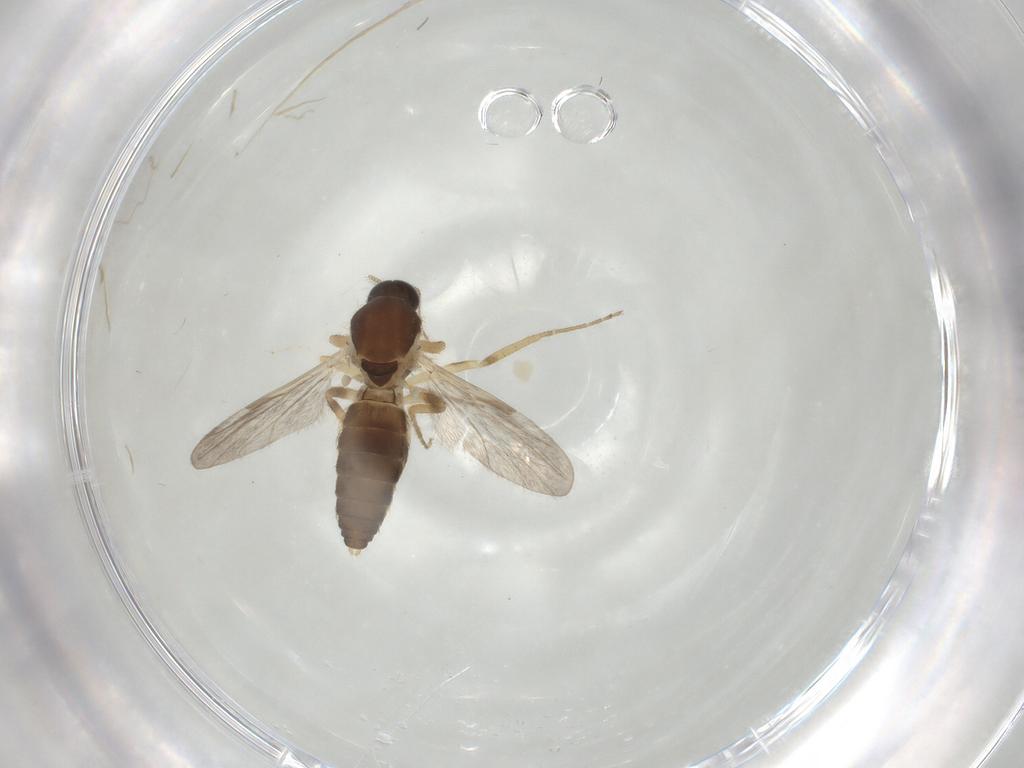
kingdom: Animalia
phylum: Arthropoda
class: Insecta
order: Diptera
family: Ceratopogonidae
